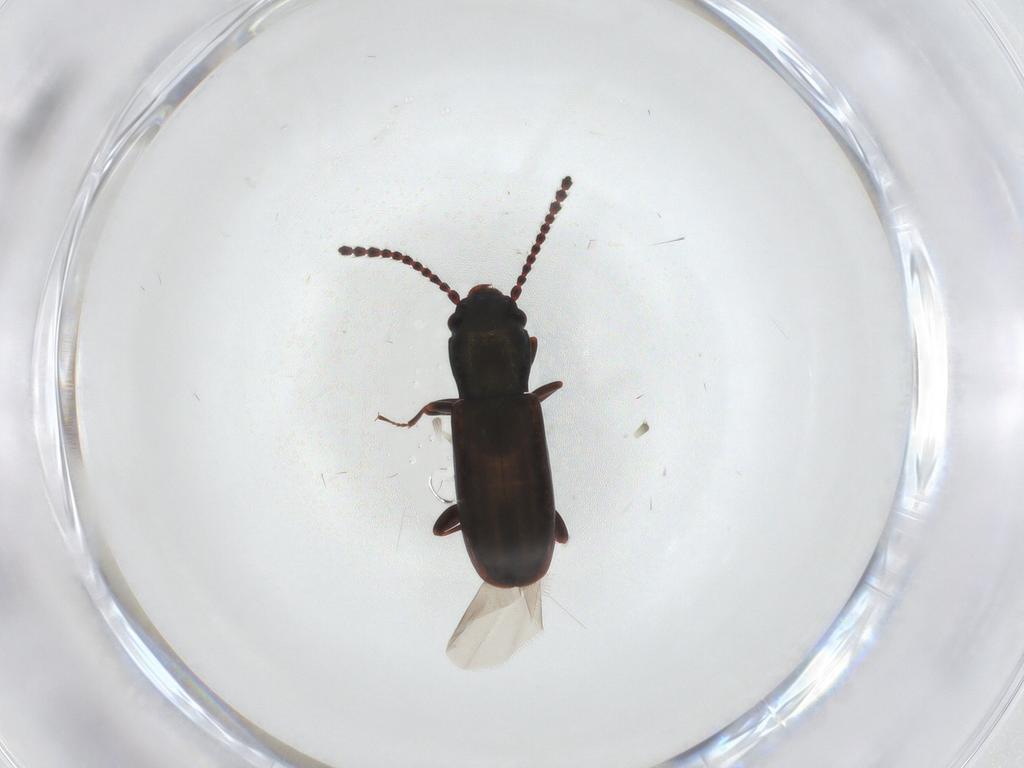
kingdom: Animalia
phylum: Arthropoda
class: Insecta
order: Coleoptera
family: Laemophloeidae
